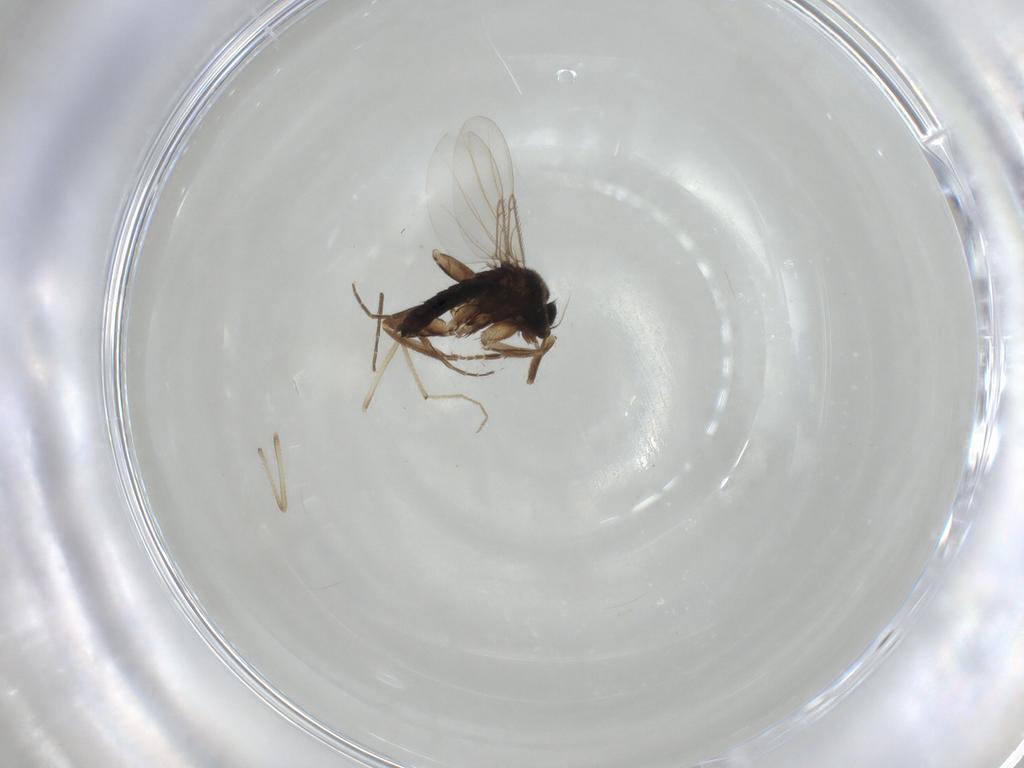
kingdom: Animalia
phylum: Arthropoda
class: Insecta
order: Diptera
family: Phoridae
